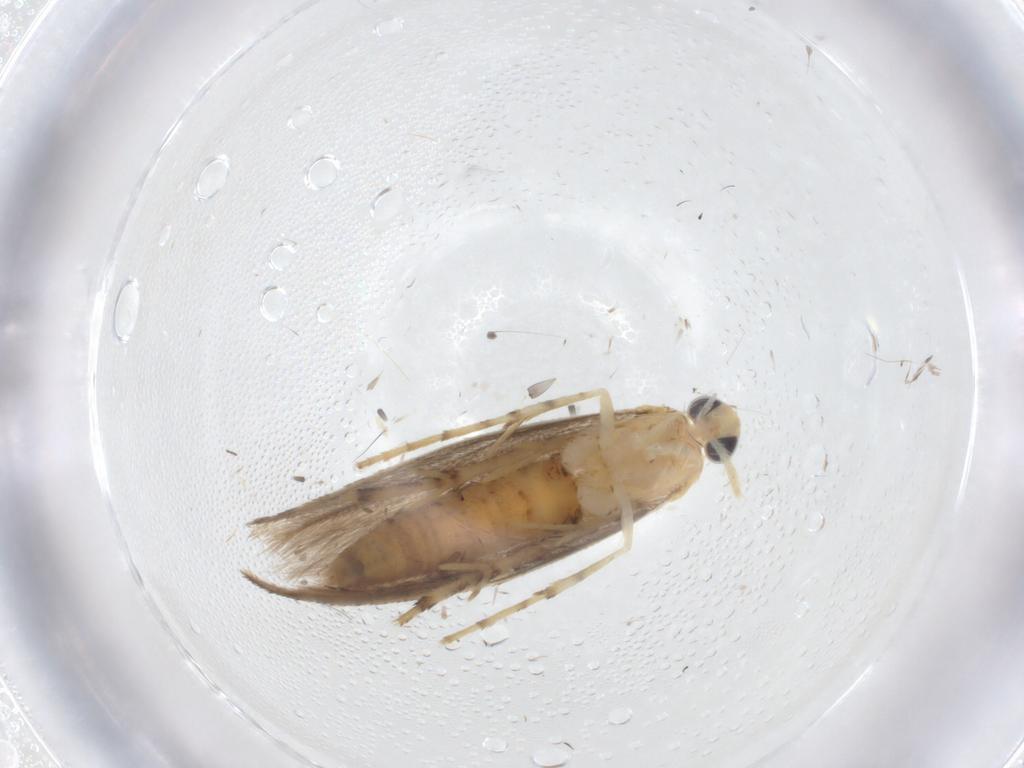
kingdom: Animalia
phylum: Arthropoda
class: Insecta
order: Lepidoptera
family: Argyresthiidae
